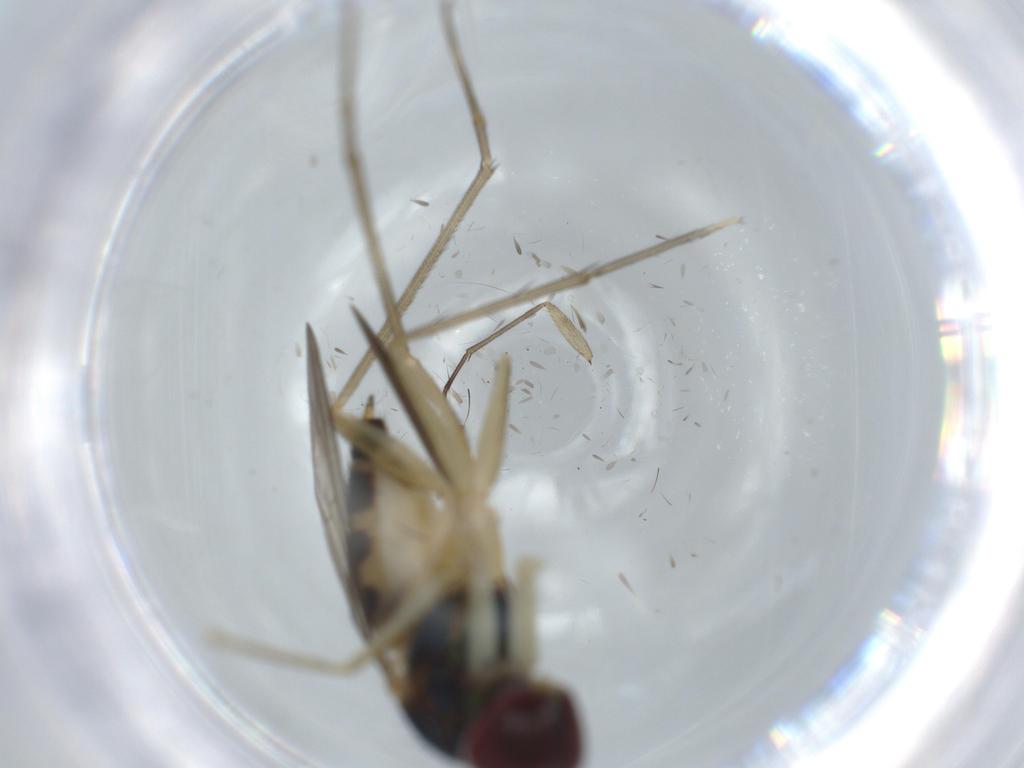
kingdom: Animalia
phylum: Arthropoda
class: Insecta
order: Diptera
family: Dolichopodidae
